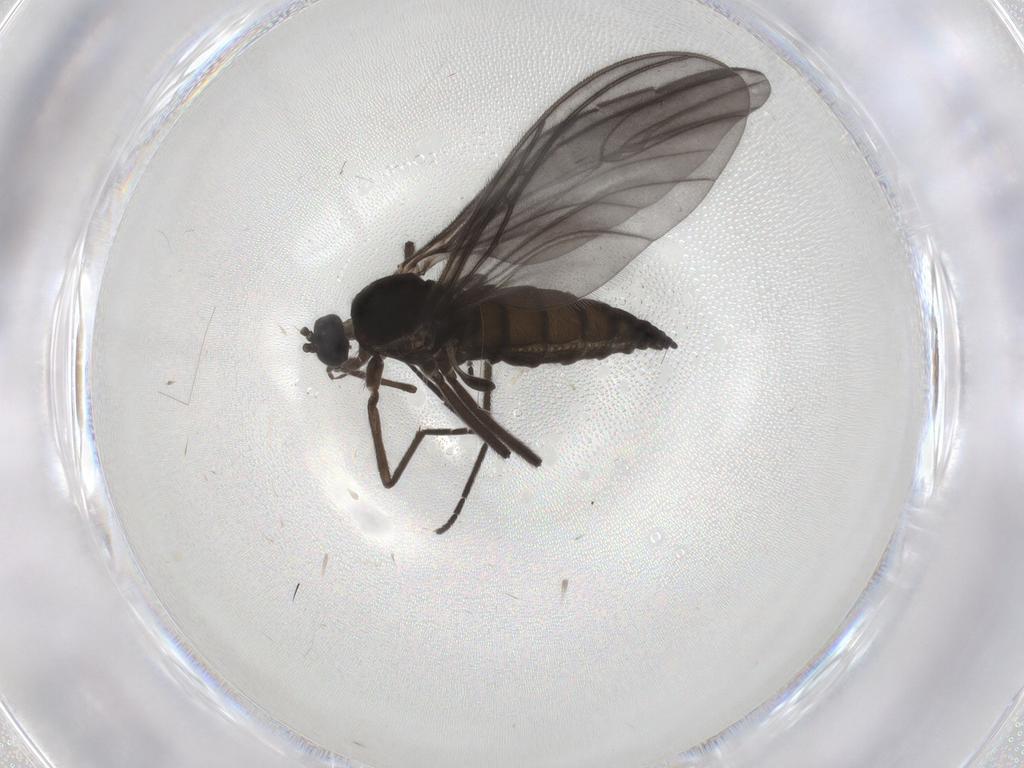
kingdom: Animalia
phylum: Arthropoda
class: Insecta
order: Diptera
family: Sciaridae
